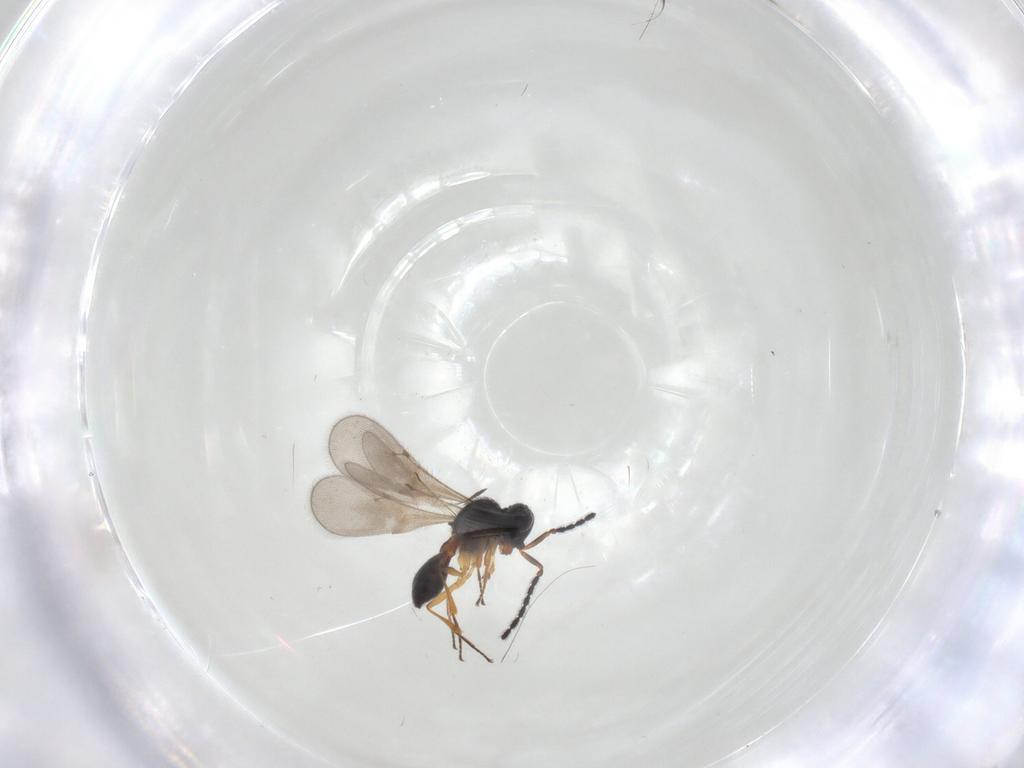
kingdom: Animalia
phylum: Arthropoda
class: Insecta
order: Hymenoptera
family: Scelionidae
